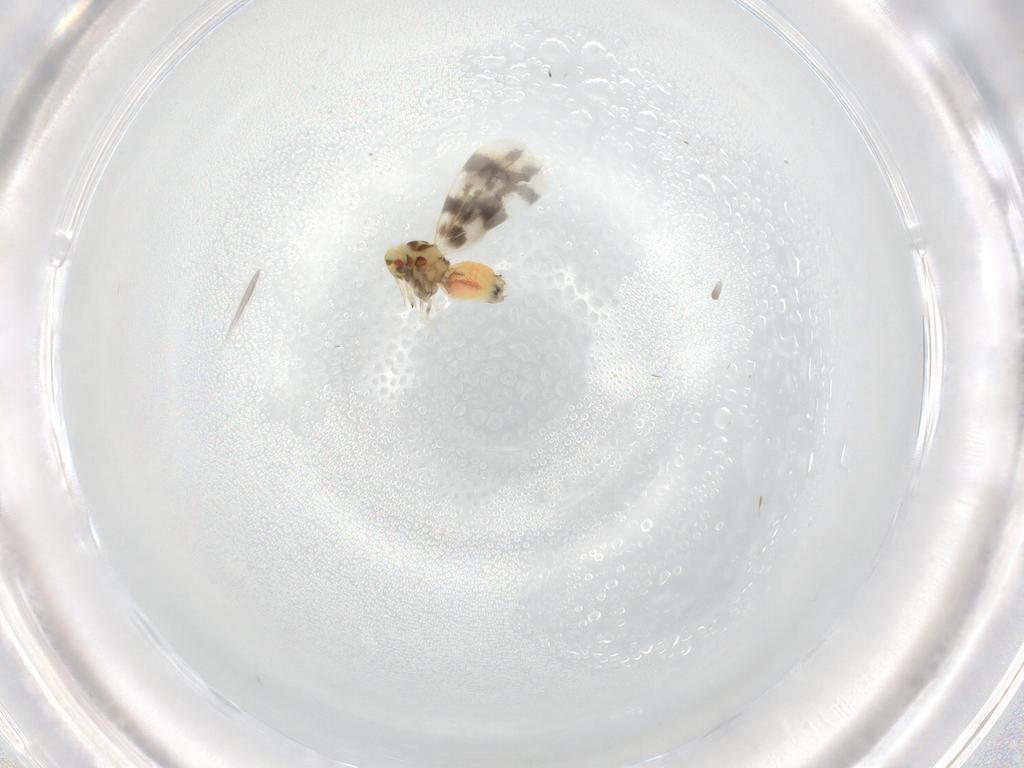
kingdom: Animalia
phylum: Arthropoda
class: Insecta
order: Hemiptera
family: Aleyrodidae
